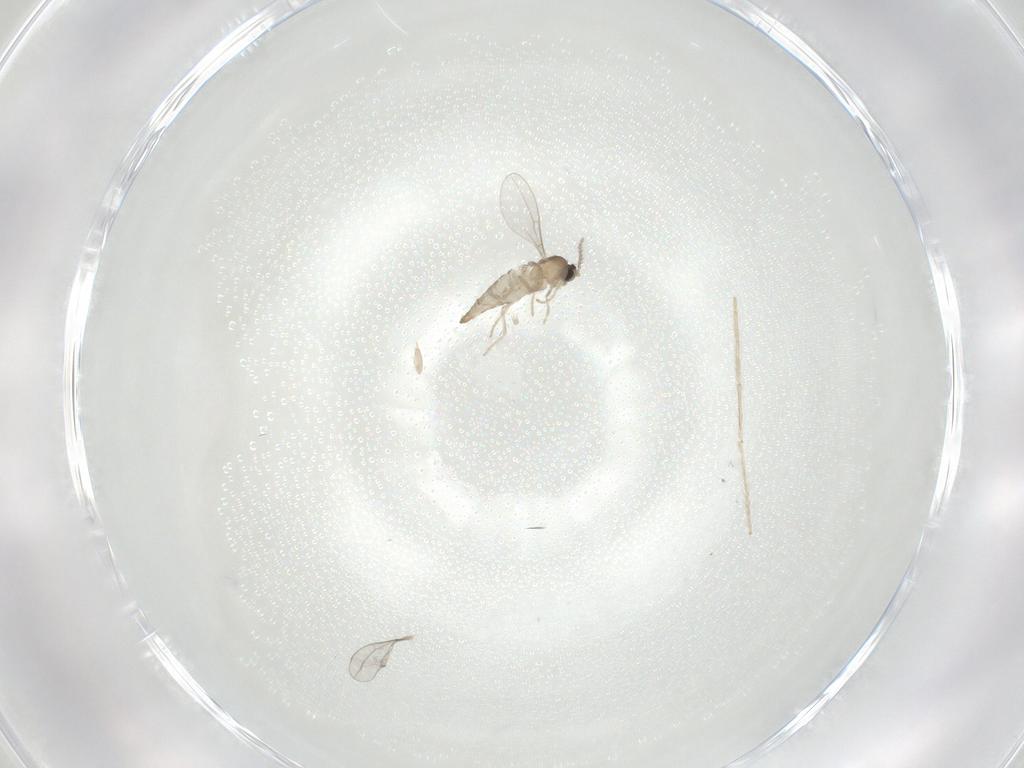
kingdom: Animalia
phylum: Arthropoda
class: Insecta
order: Diptera
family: Cecidomyiidae
